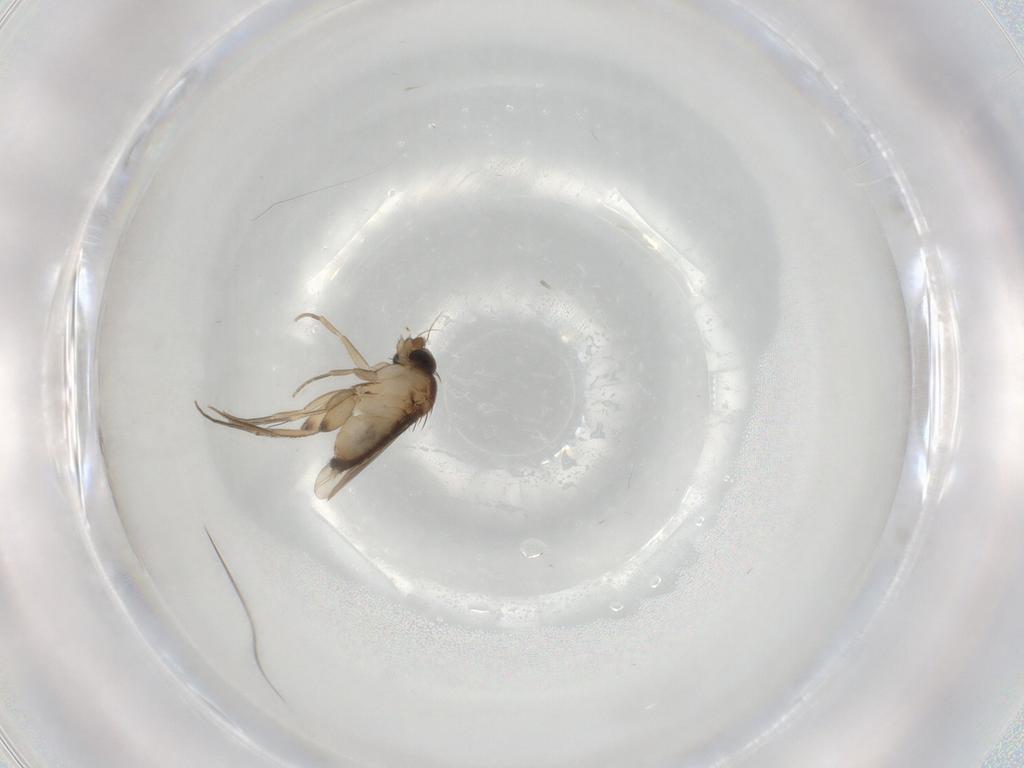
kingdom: Animalia
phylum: Arthropoda
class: Insecta
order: Diptera
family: Phoridae
